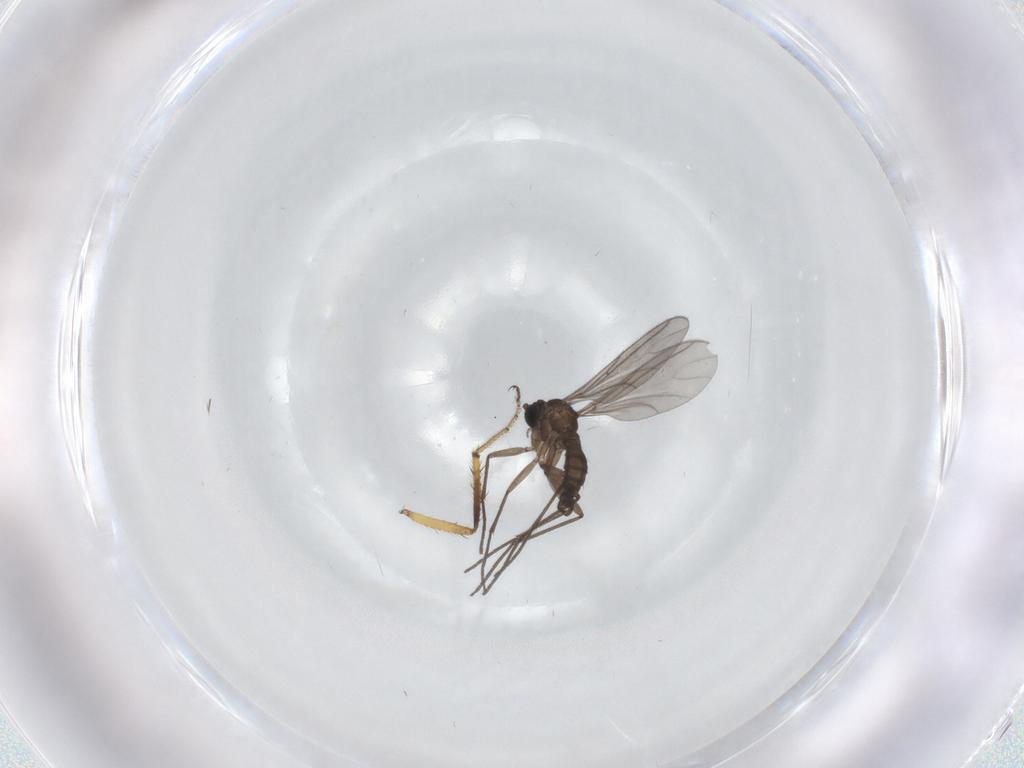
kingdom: Animalia
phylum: Arthropoda
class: Insecta
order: Diptera
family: Sciaridae
